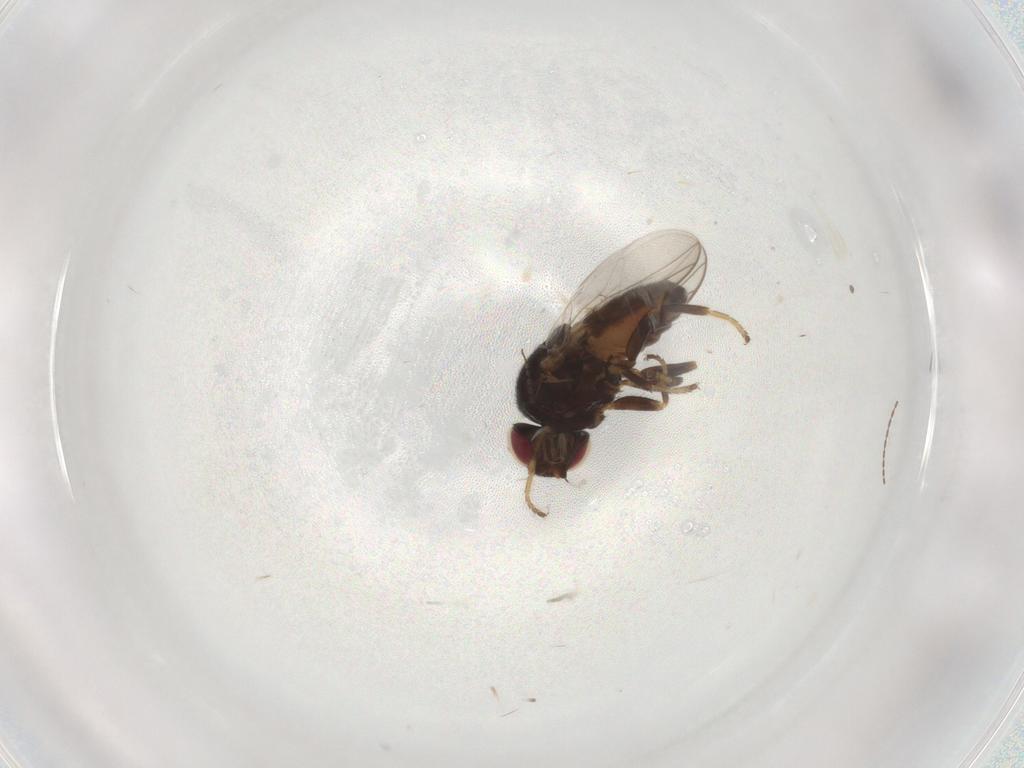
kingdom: Animalia
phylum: Arthropoda
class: Insecta
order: Diptera
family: Chloropidae
